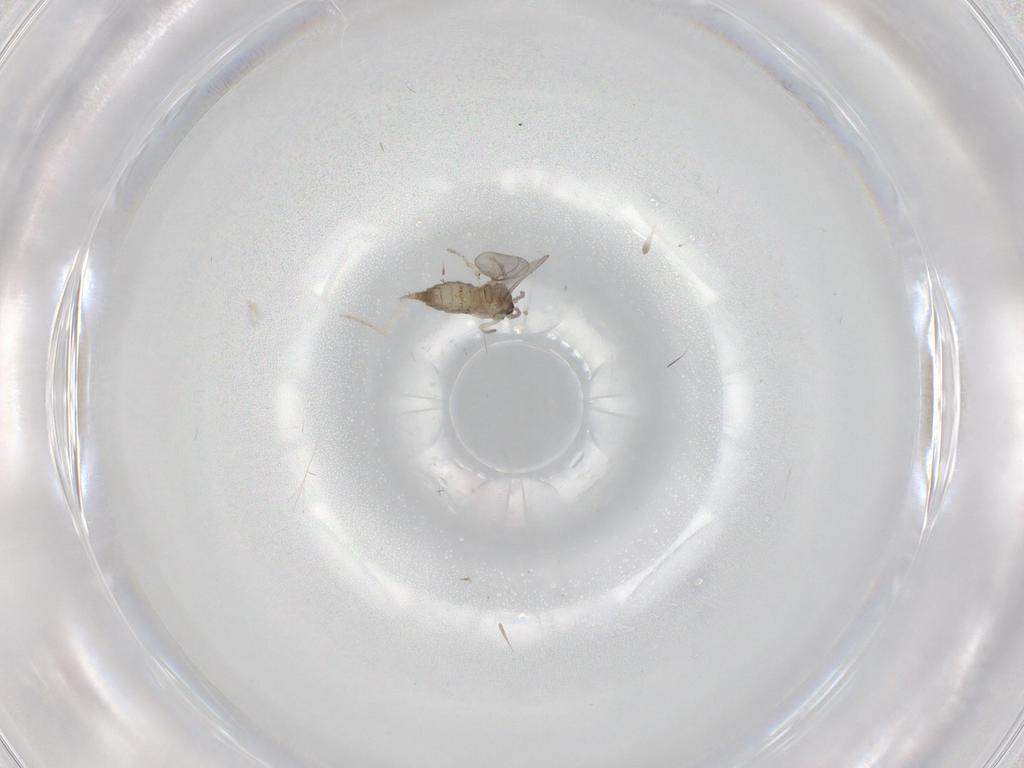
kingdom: Animalia
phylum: Arthropoda
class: Insecta
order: Diptera
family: Cecidomyiidae
